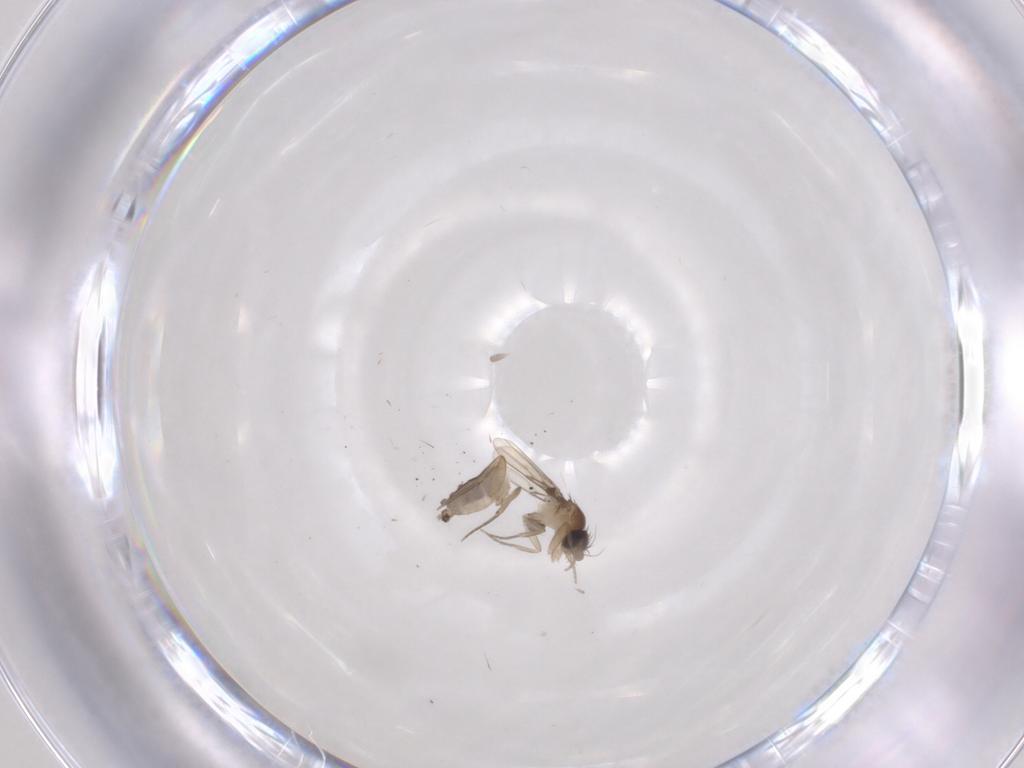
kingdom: Animalia
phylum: Arthropoda
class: Insecta
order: Diptera
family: Phoridae
